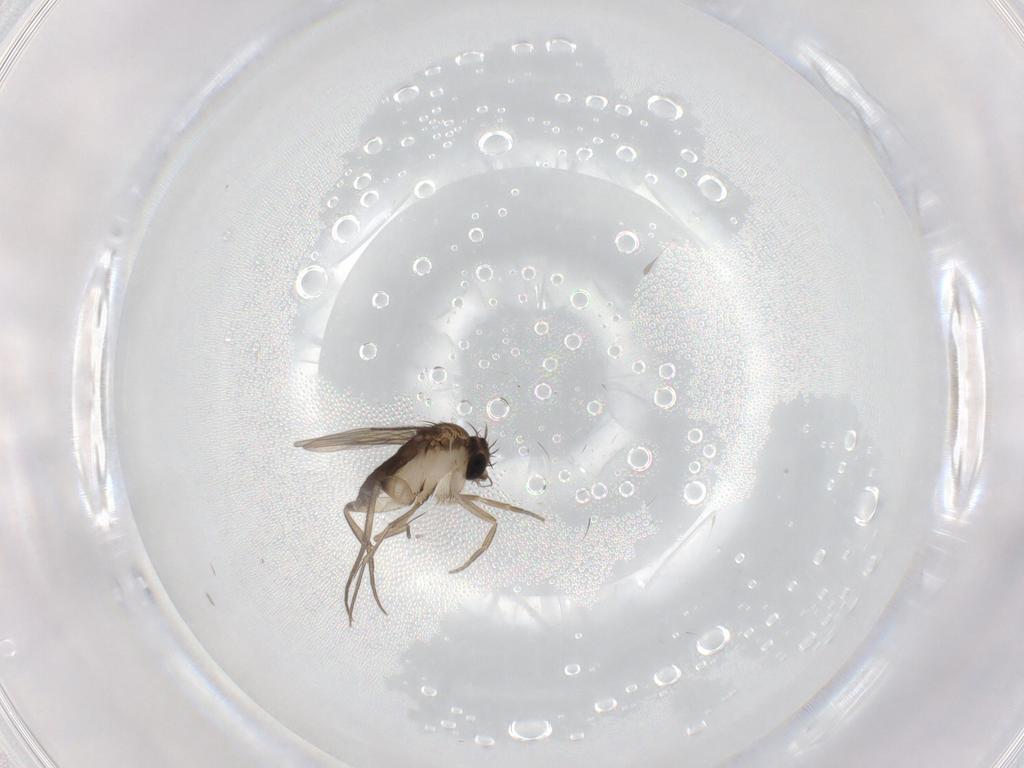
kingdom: Animalia
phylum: Arthropoda
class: Insecta
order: Diptera
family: Phoridae
